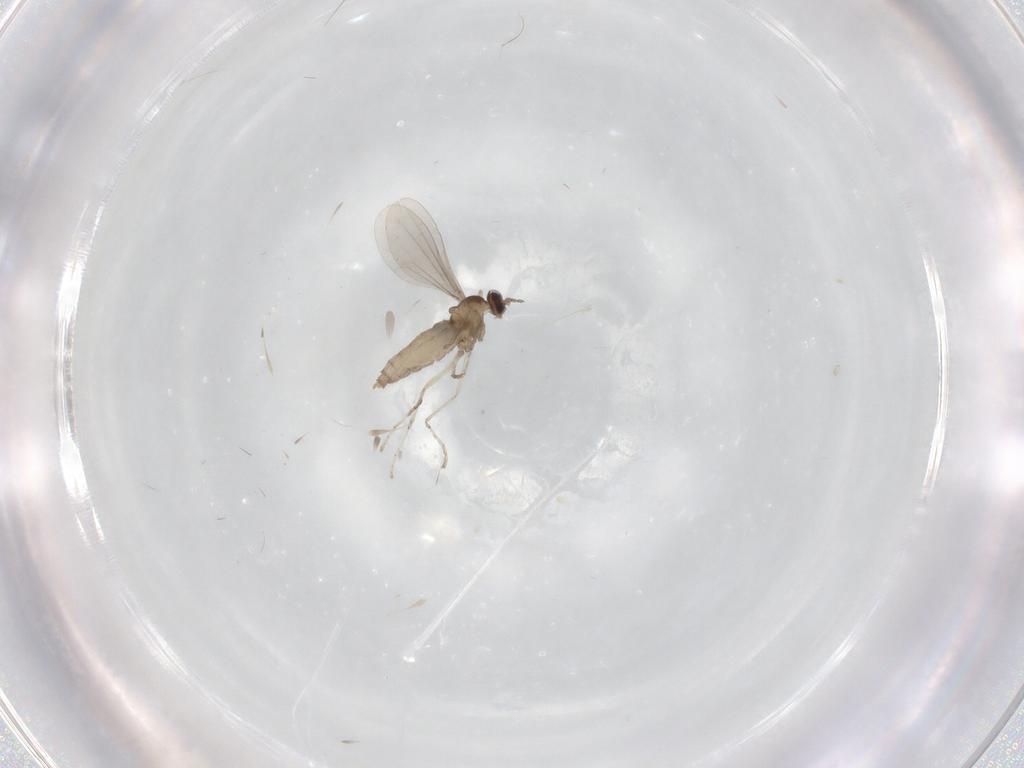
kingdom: Animalia
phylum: Arthropoda
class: Insecta
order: Diptera
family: Cecidomyiidae
